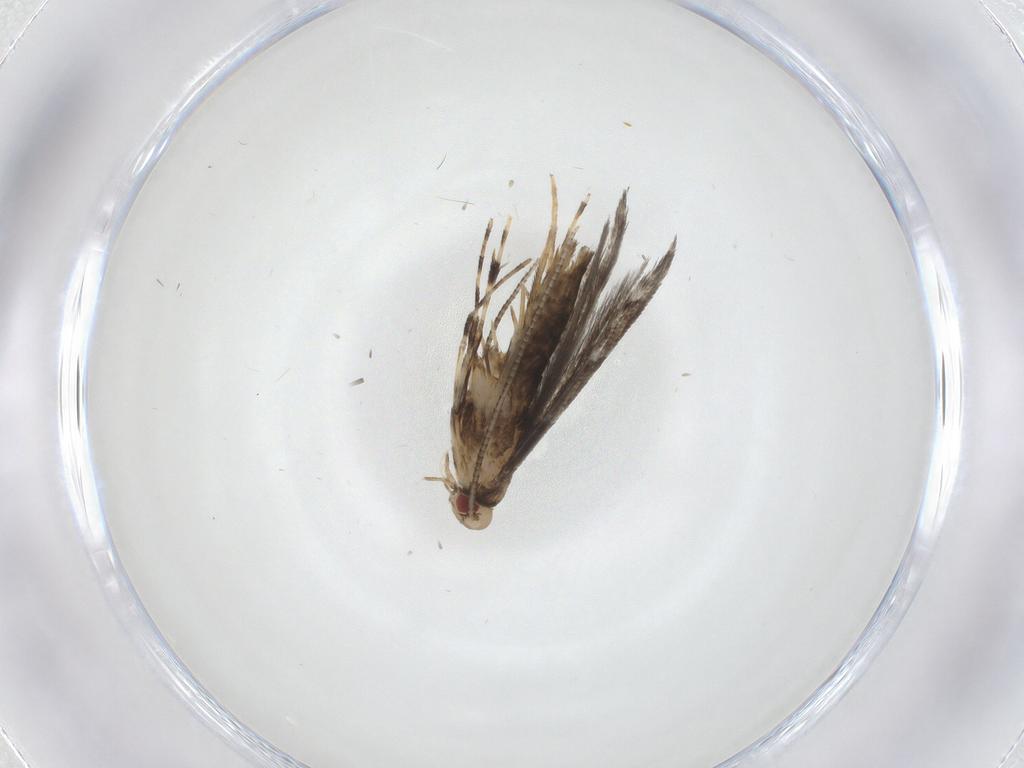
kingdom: Animalia
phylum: Arthropoda
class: Insecta
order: Lepidoptera
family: Gracillariidae
